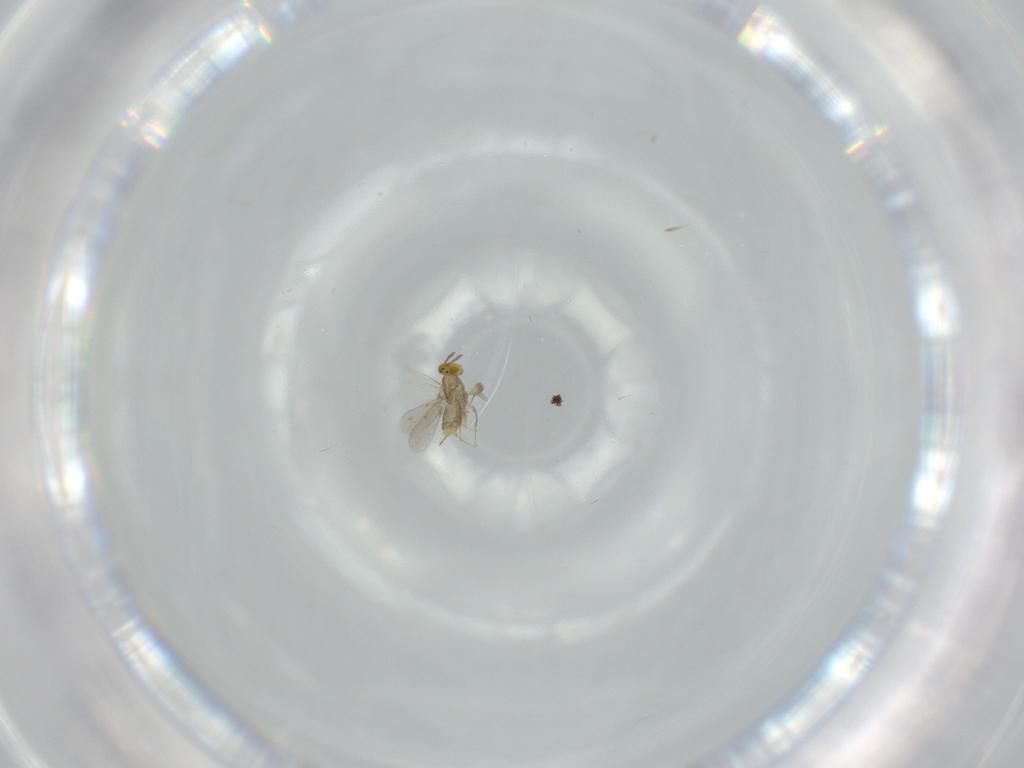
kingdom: Animalia
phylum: Arthropoda
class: Insecta
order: Hymenoptera
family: Aphelinidae
